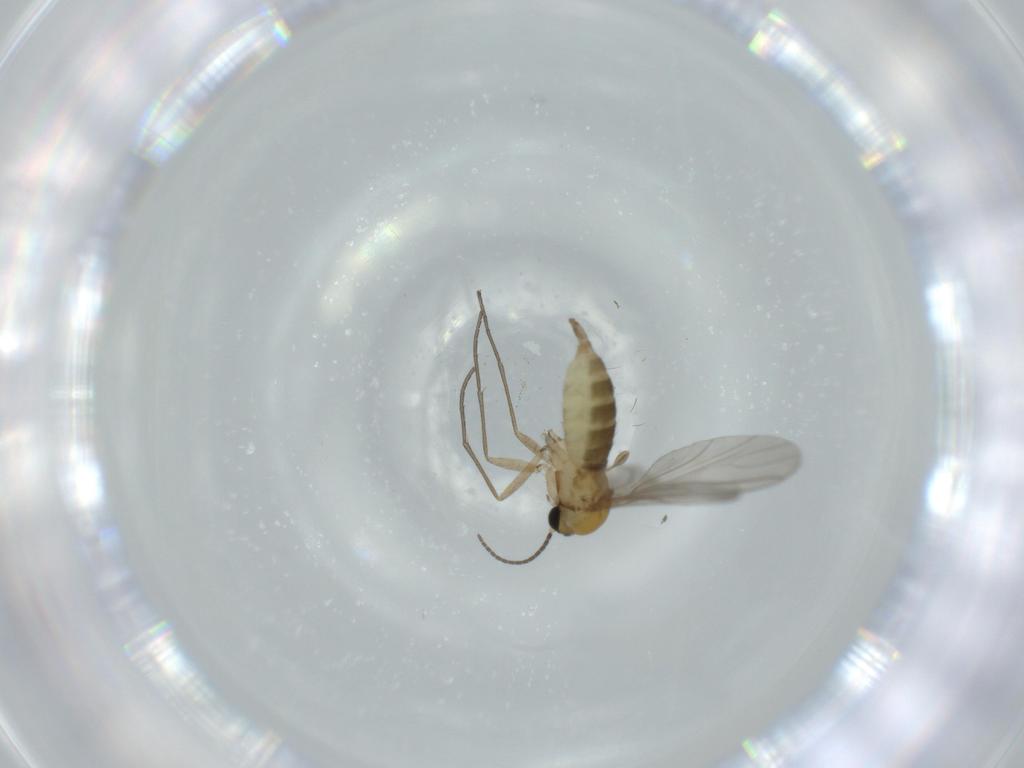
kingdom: Animalia
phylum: Arthropoda
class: Insecta
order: Diptera
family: Sciaridae
